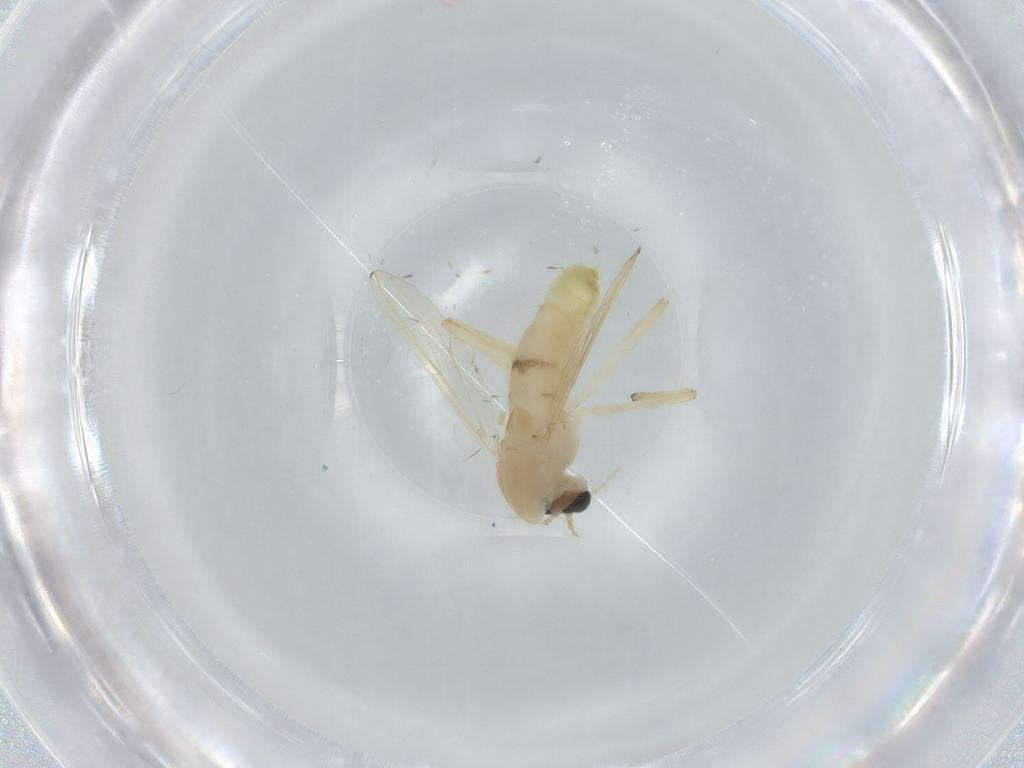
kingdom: Animalia
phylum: Arthropoda
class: Insecta
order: Diptera
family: Chironomidae
